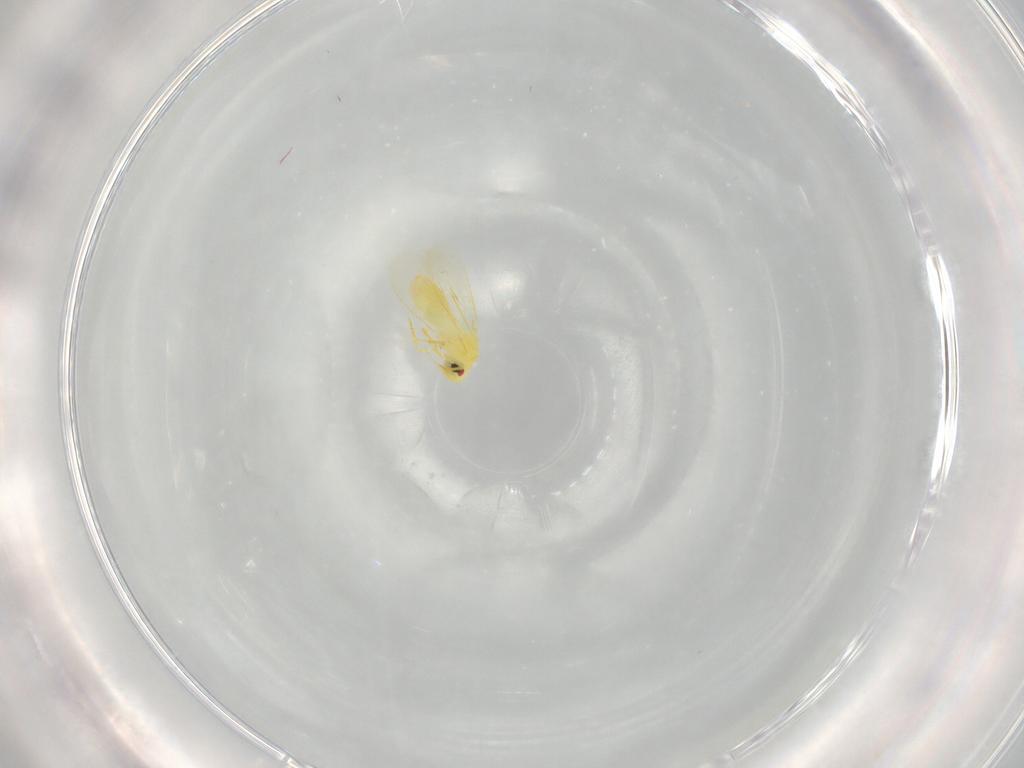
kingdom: Animalia
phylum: Arthropoda
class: Insecta
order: Hemiptera
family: Aleyrodidae
